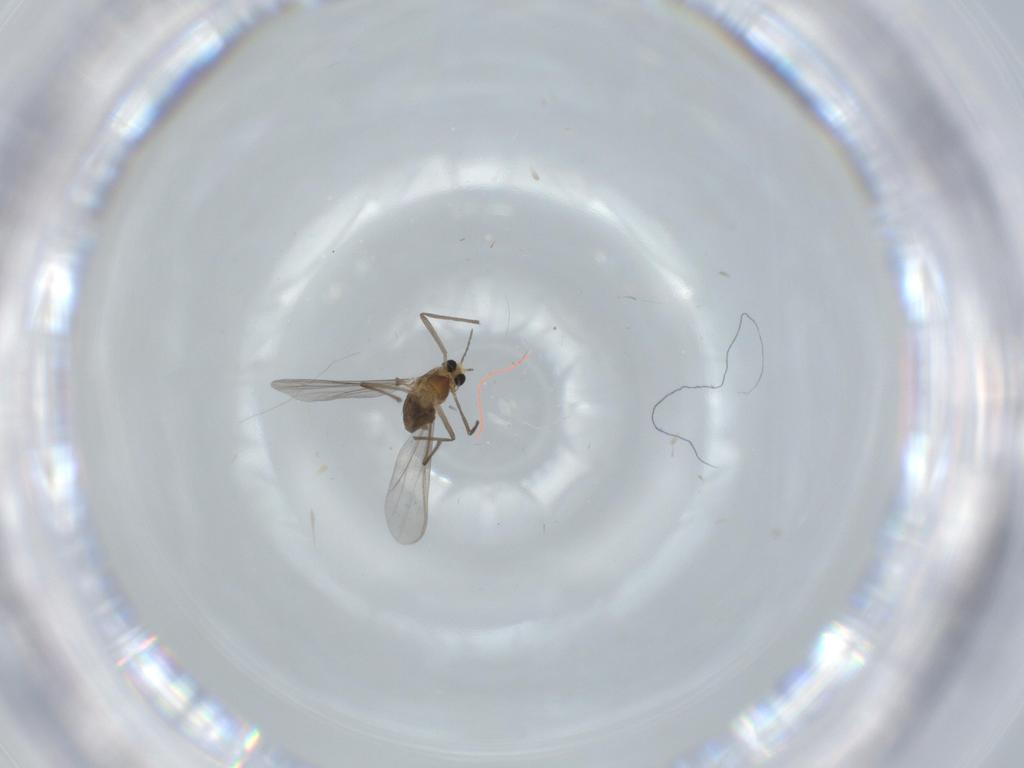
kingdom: Animalia
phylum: Arthropoda
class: Insecta
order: Diptera
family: Chironomidae
